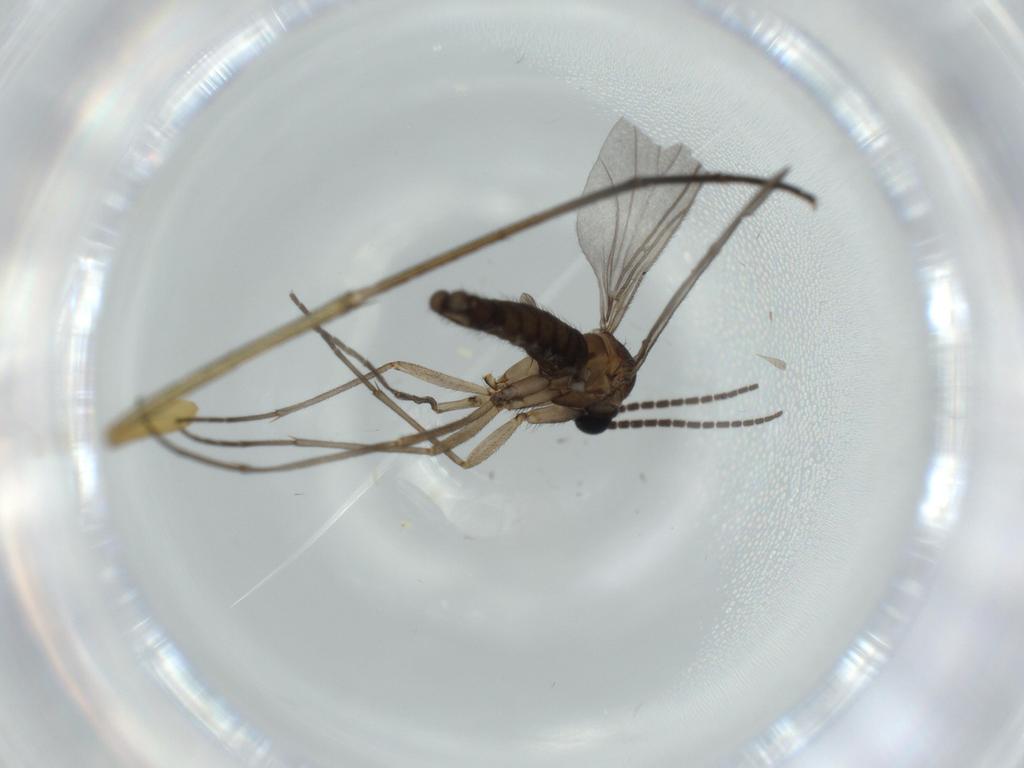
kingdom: Animalia
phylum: Arthropoda
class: Insecta
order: Diptera
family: Sciaridae
